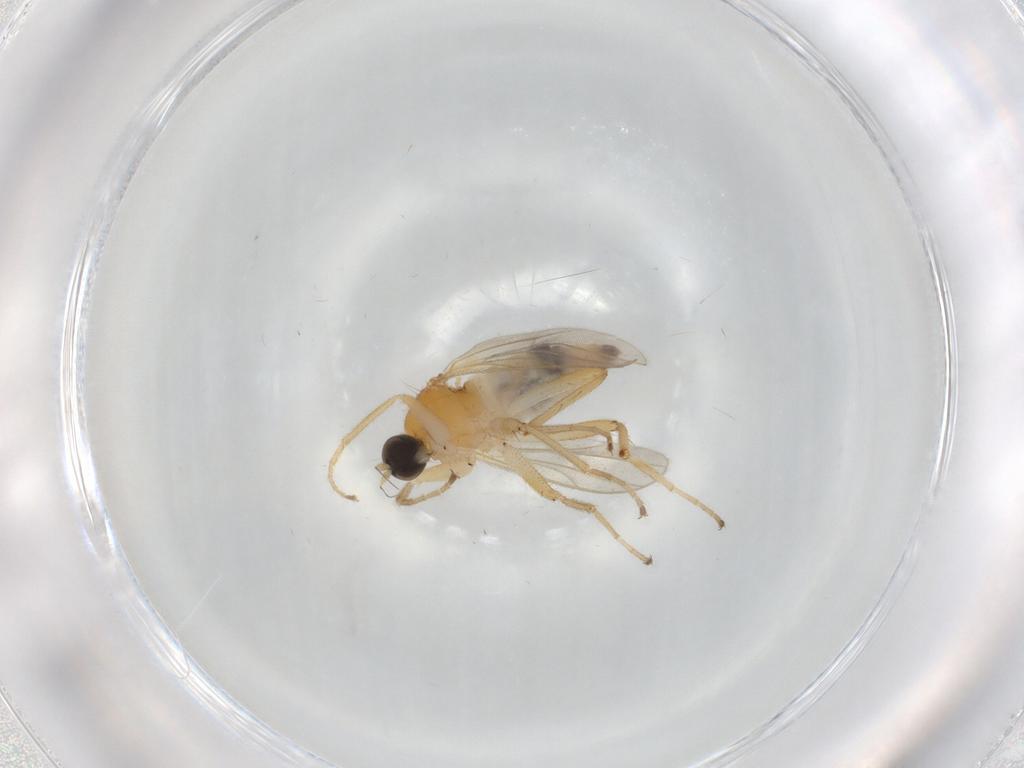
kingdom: Animalia
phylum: Arthropoda
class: Insecta
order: Diptera
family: Hybotidae
